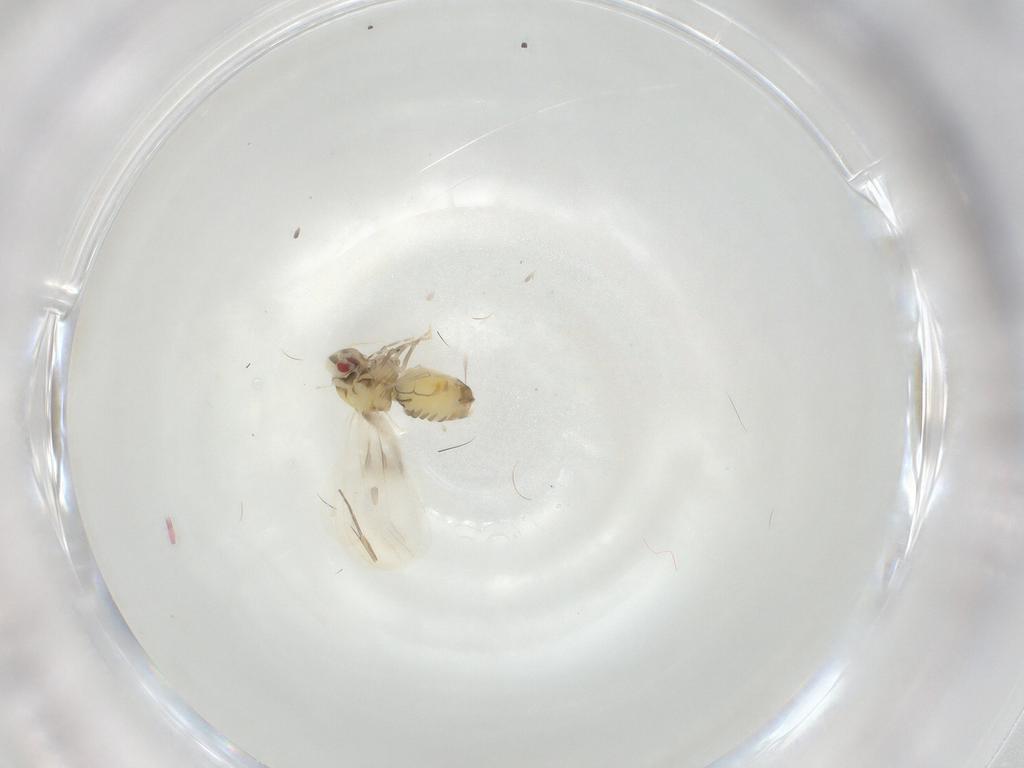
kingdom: Animalia
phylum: Arthropoda
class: Insecta
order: Hemiptera
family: Aleyrodidae
